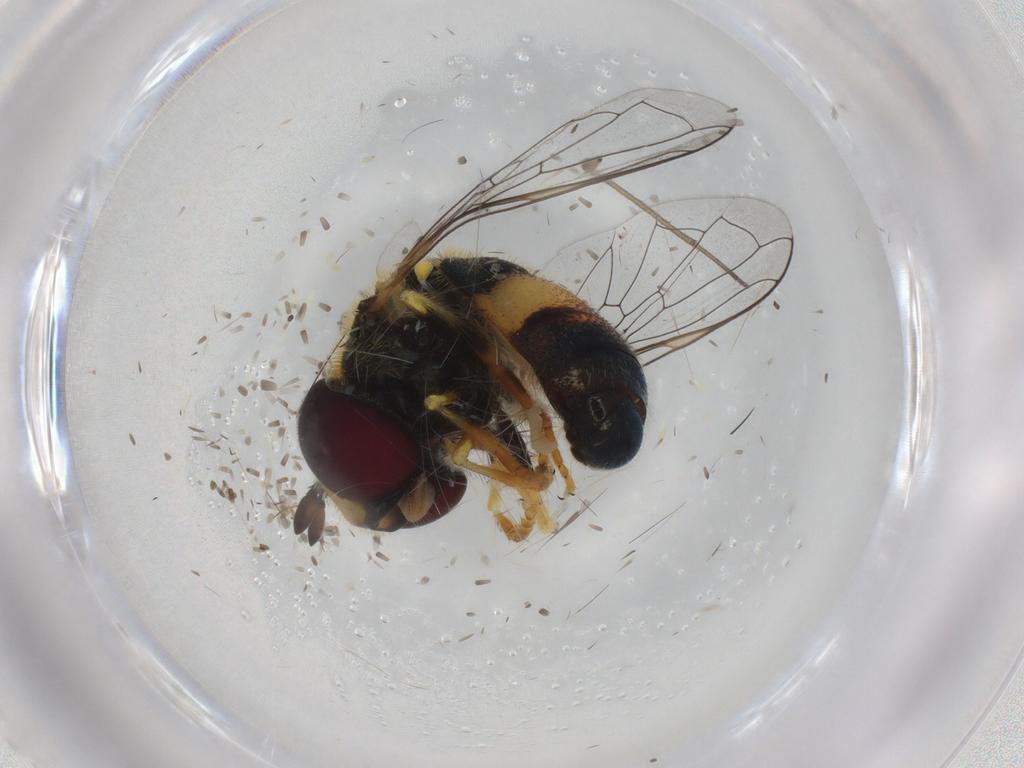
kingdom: Animalia
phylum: Arthropoda
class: Insecta
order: Diptera
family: Cecidomyiidae
